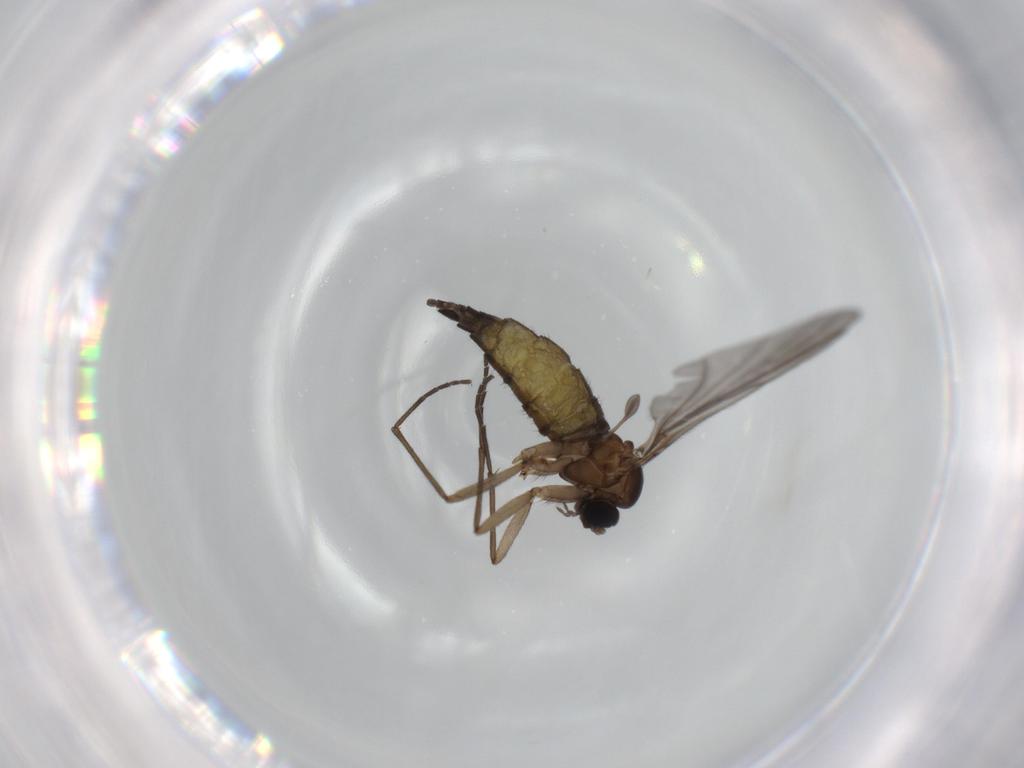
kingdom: Animalia
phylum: Arthropoda
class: Insecta
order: Diptera
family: Sciaridae
